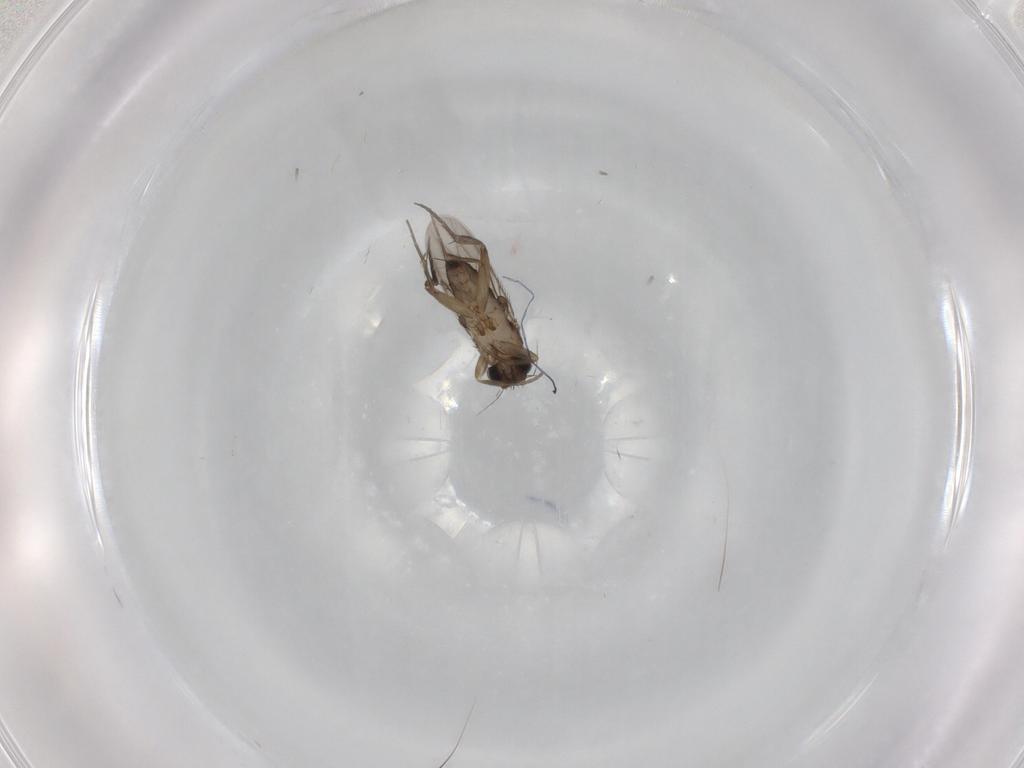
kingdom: Animalia
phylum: Arthropoda
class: Insecta
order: Diptera
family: Phoridae
